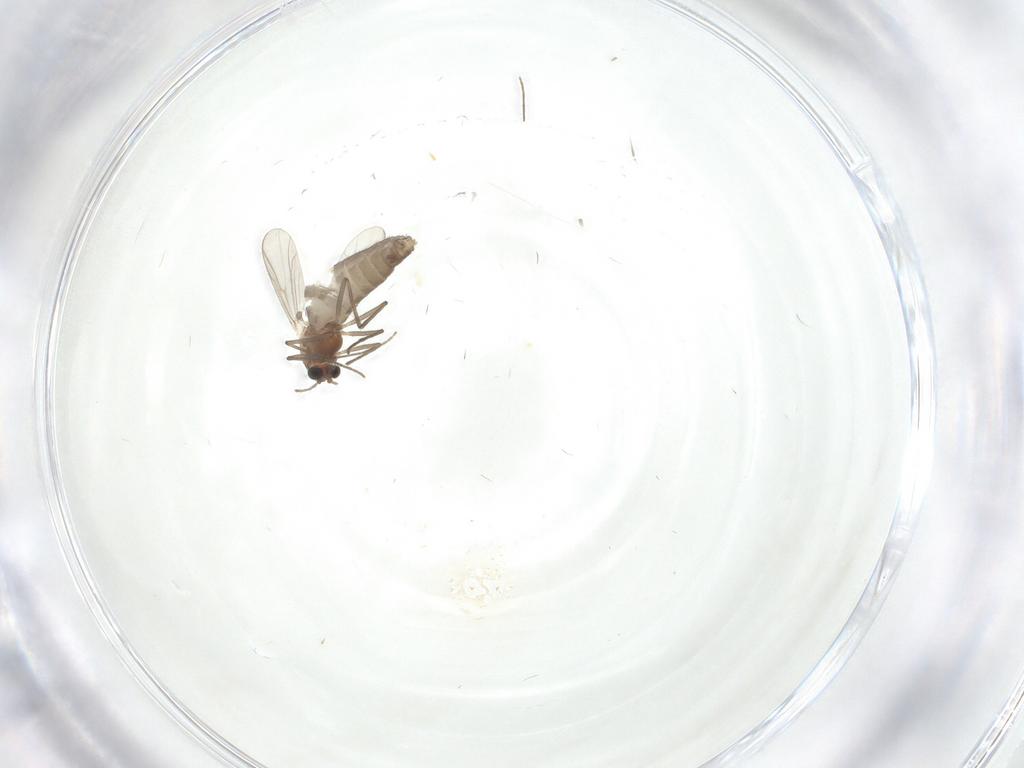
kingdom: Animalia
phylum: Arthropoda
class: Insecta
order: Diptera
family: Chironomidae
